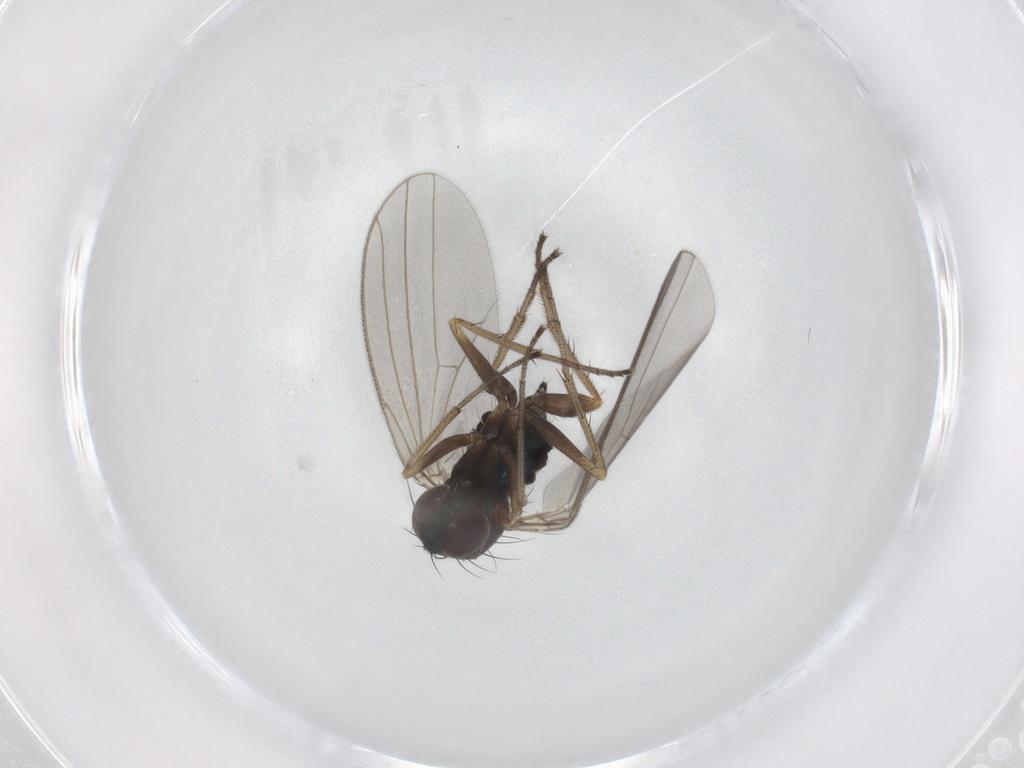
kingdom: Animalia
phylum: Arthropoda
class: Insecta
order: Diptera
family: Dolichopodidae
